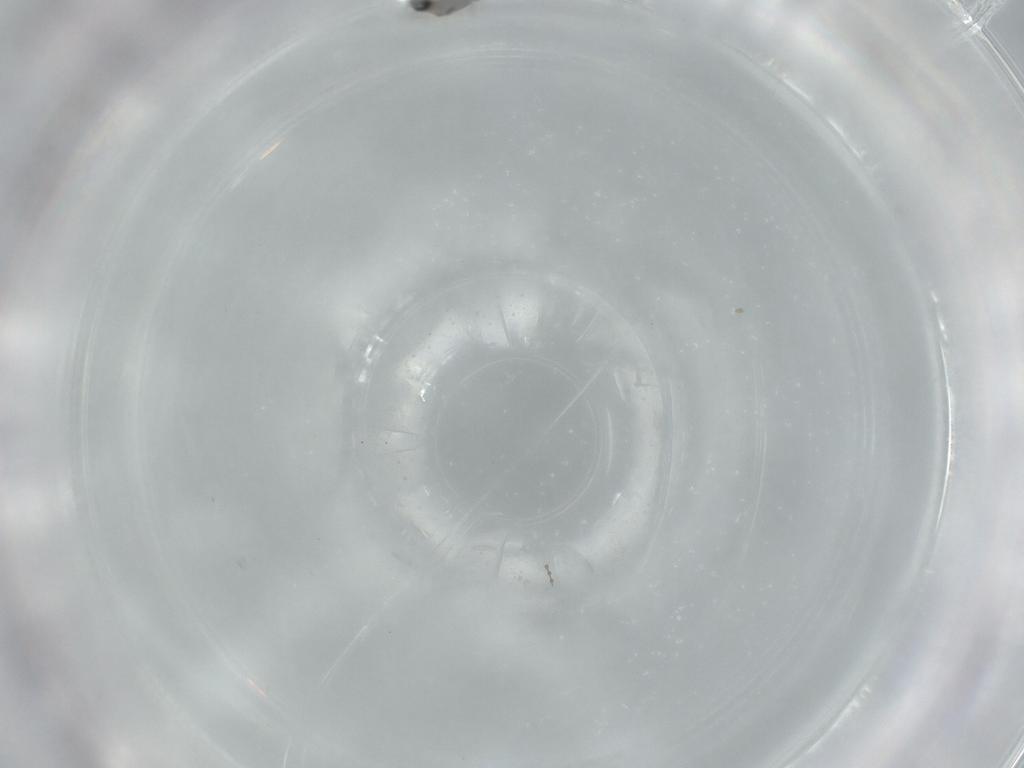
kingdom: Animalia
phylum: Arthropoda
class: Insecta
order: Diptera
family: Cecidomyiidae
